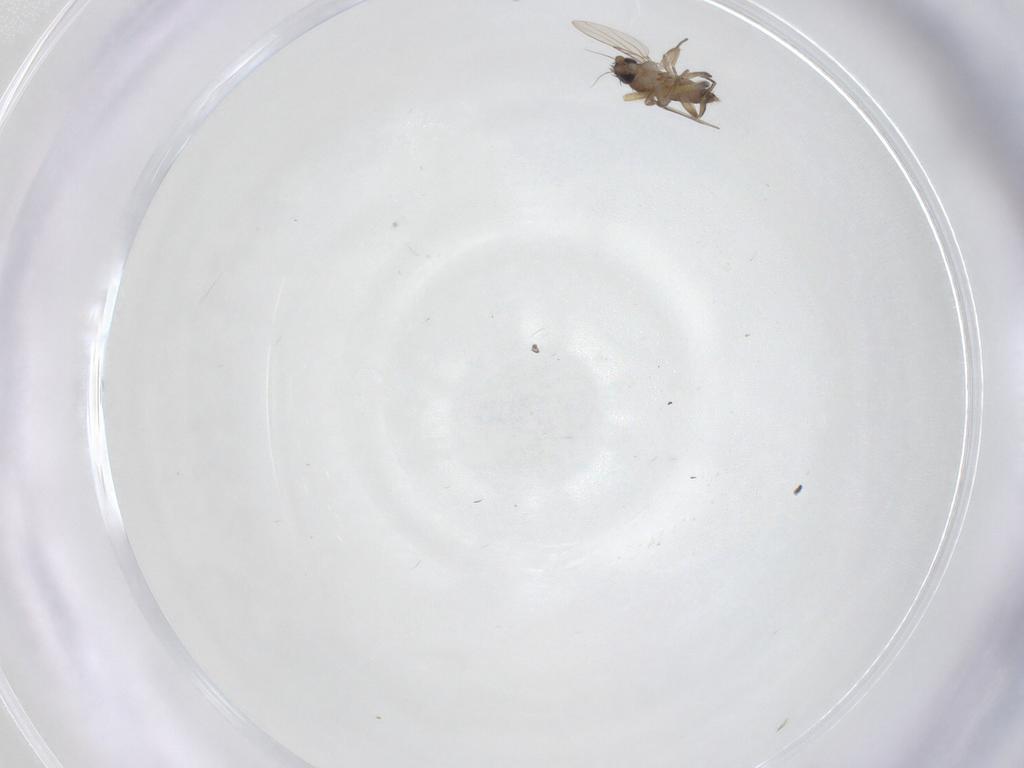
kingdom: Animalia
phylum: Arthropoda
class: Insecta
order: Diptera
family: Phoridae
